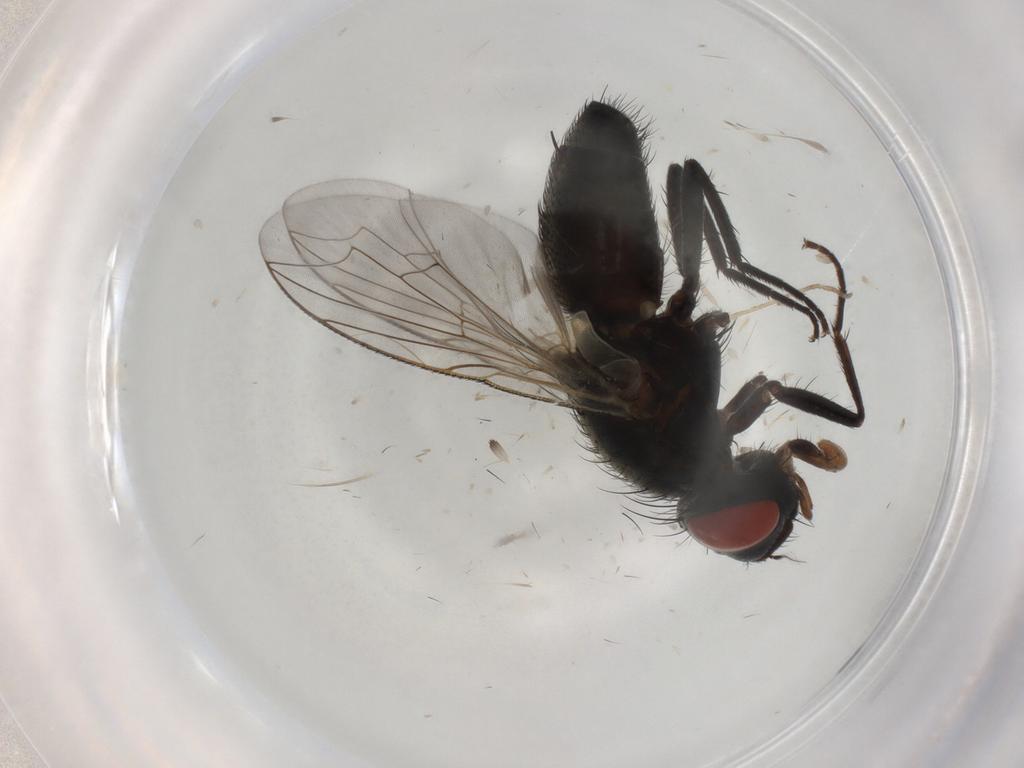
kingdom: Animalia
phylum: Arthropoda
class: Insecta
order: Diptera
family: Sarcophagidae
